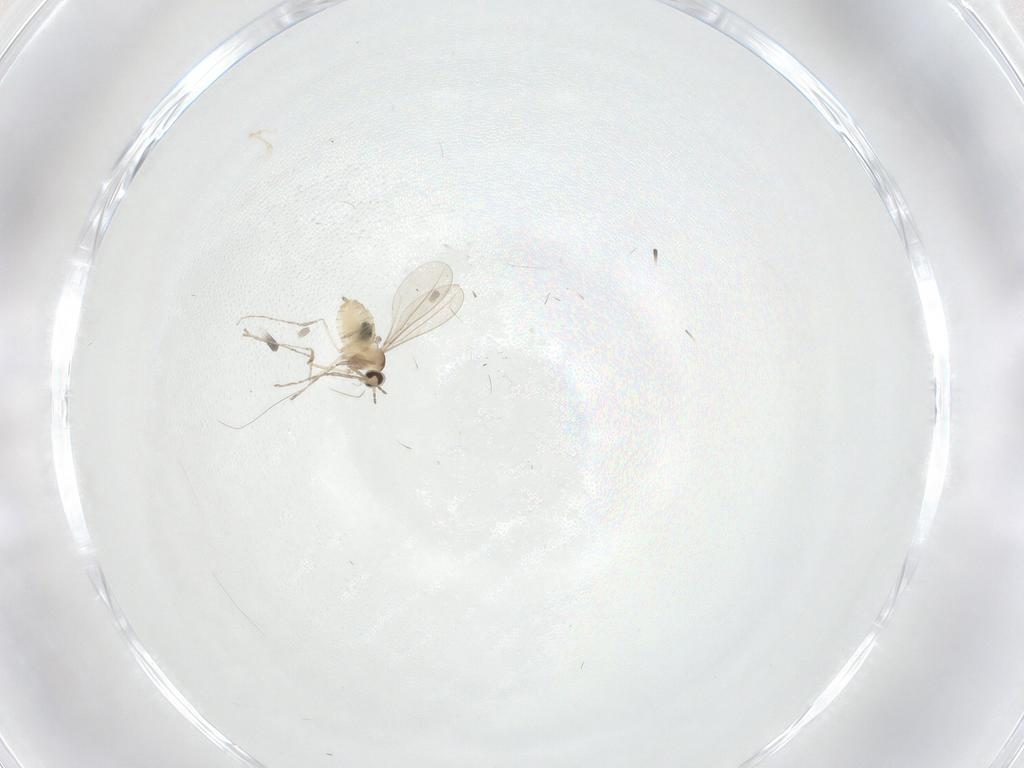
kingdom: Animalia
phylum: Arthropoda
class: Insecta
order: Diptera
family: Cecidomyiidae
